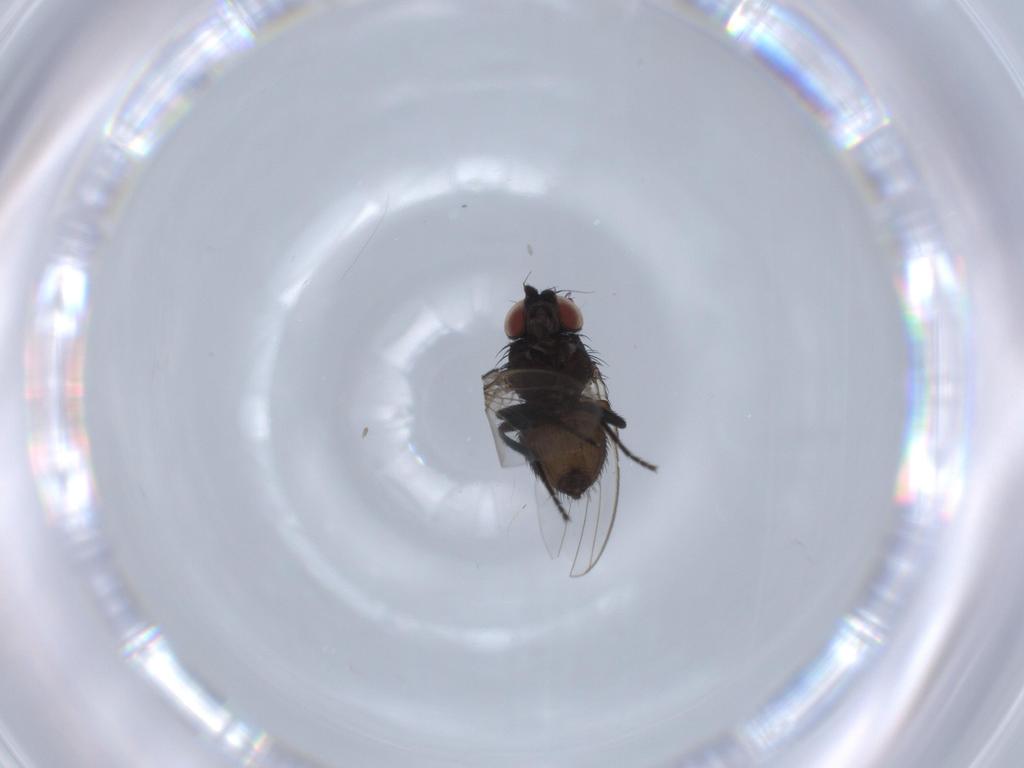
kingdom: Animalia
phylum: Arthropoda
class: Insecta
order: Diptera
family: Milichiidae
